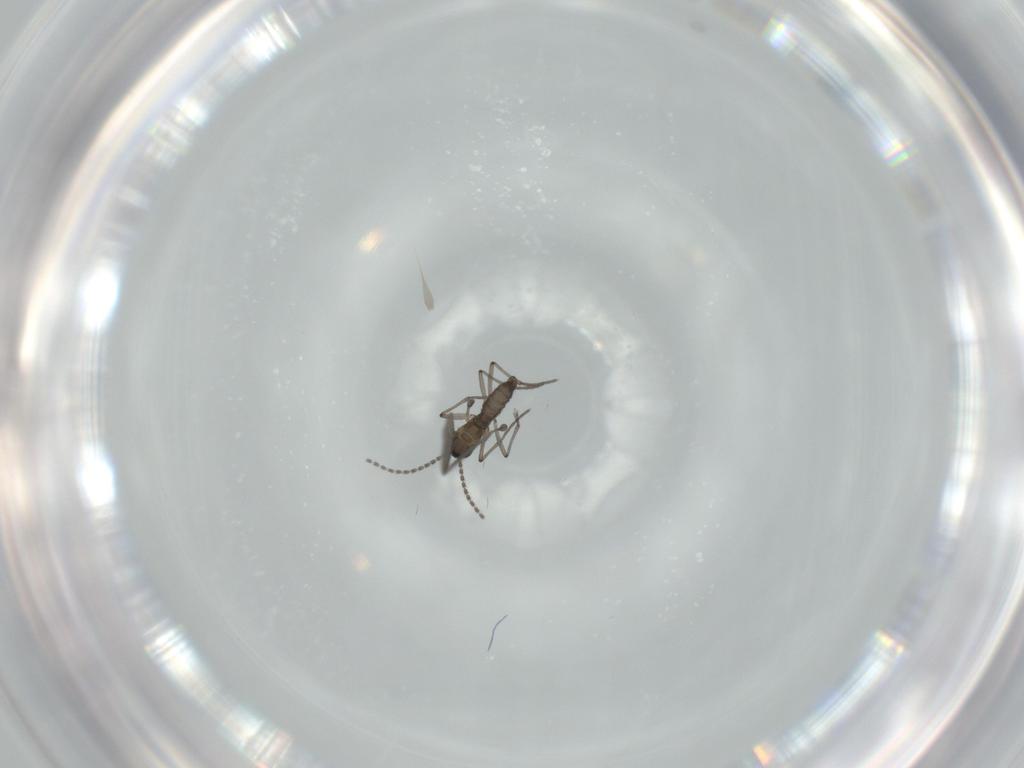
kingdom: Animalia
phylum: Arthropoda
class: Insecta
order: Diptera
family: Sciaridae
